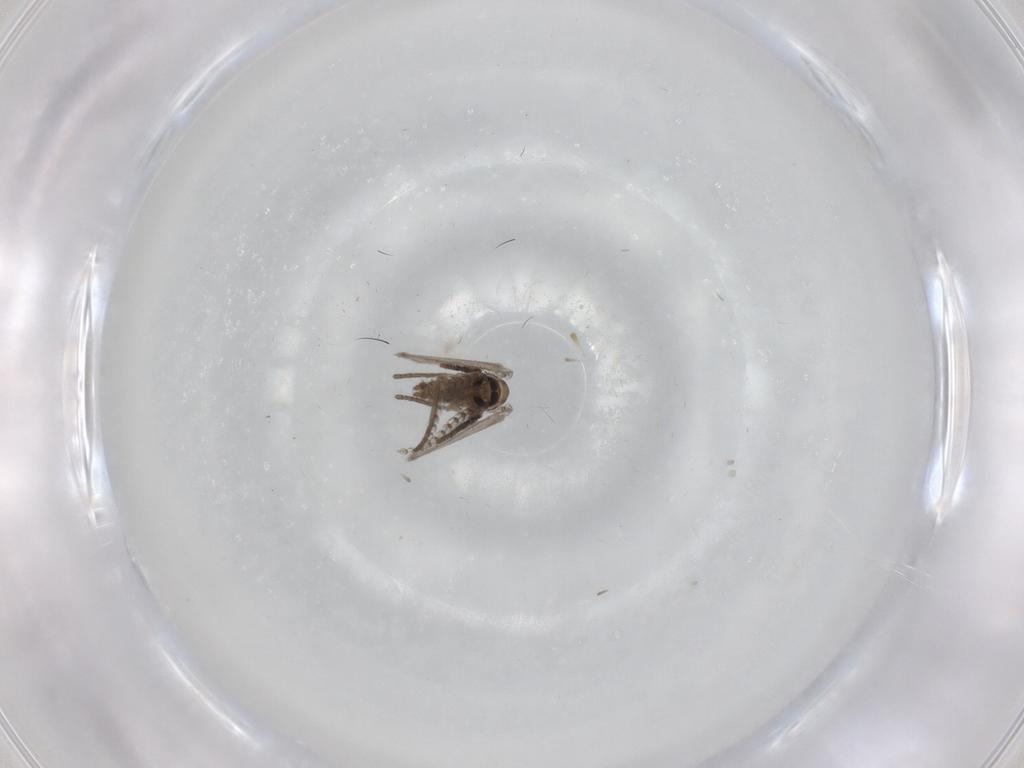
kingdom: Animalia
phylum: Arthropoda
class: Insecta
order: Diptera
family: Psychodidae
